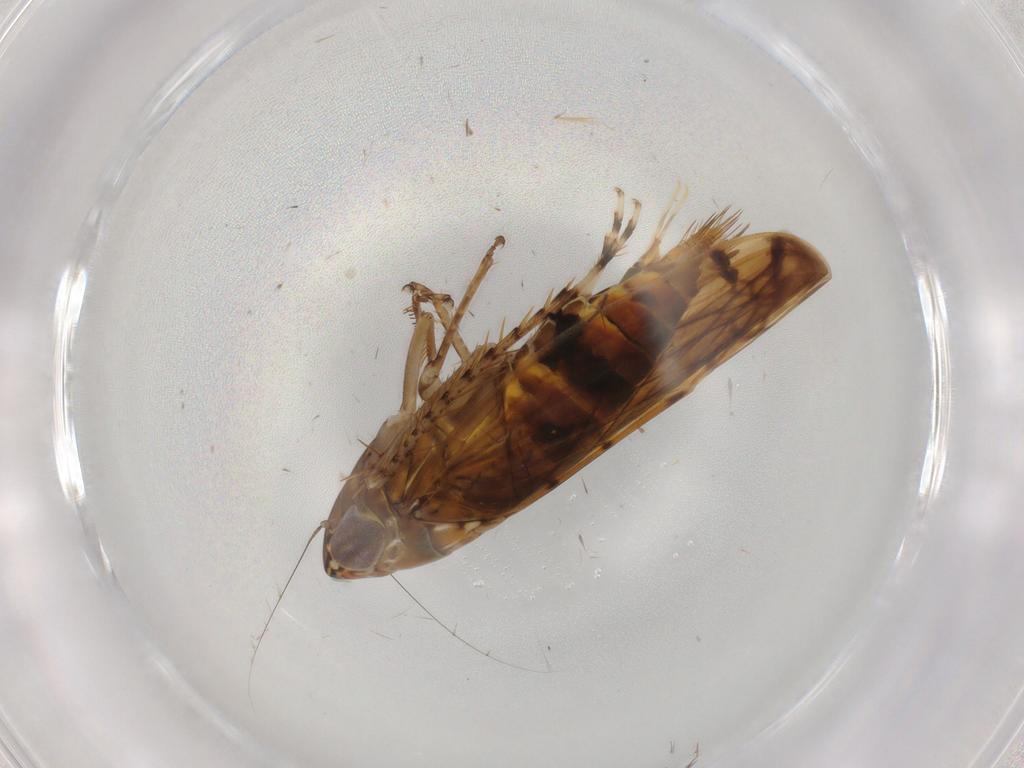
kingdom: Animalia
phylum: Arthropoda
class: Insecta
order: Hemiptera
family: Cicadellidae
